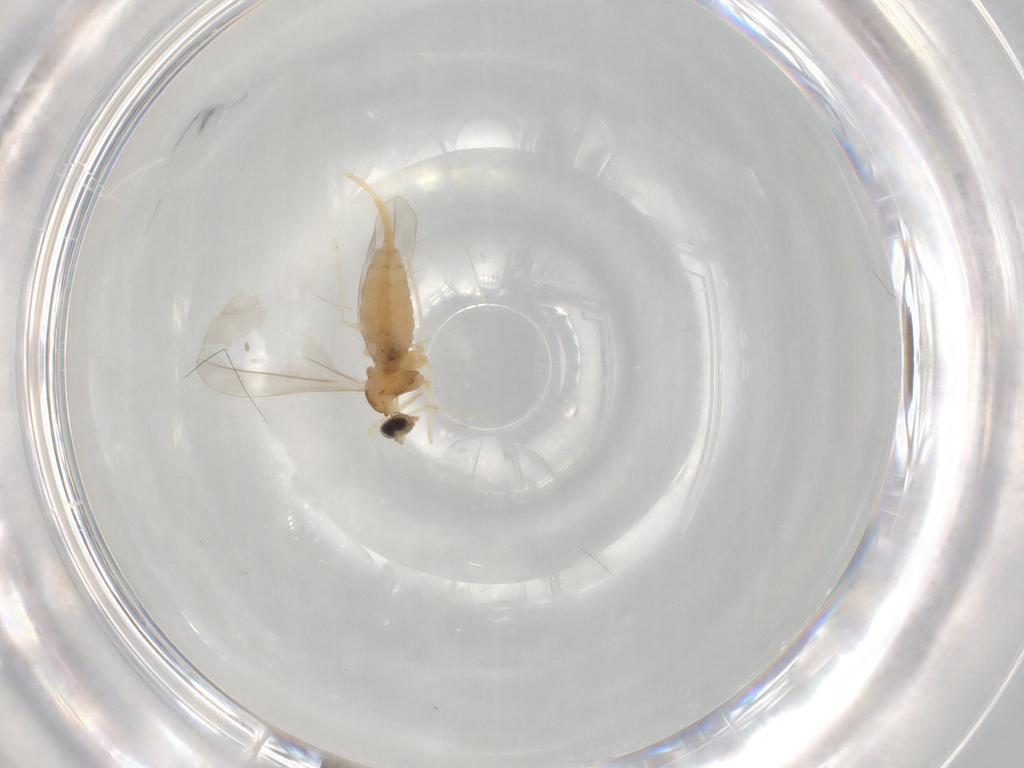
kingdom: Animalia
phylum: Arthropoda
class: Insecta
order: Diptera
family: Cecidomyiidae
